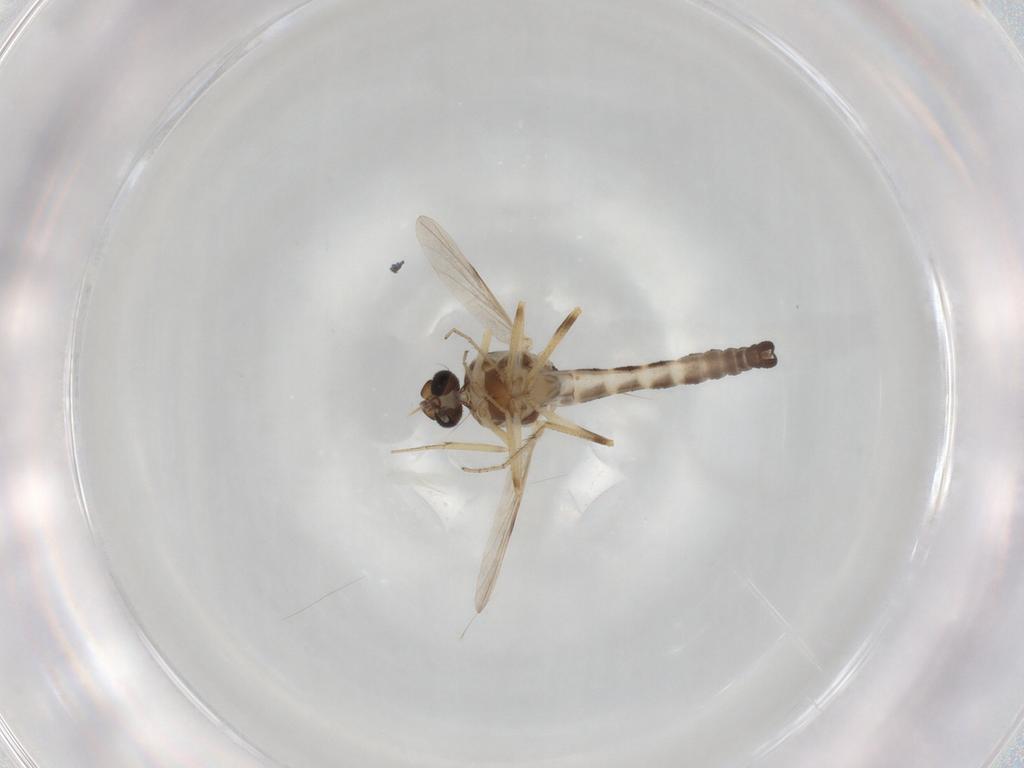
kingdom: Animalia
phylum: Arthropoda
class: Insecta
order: Diptera
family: Ceratopogonidae
